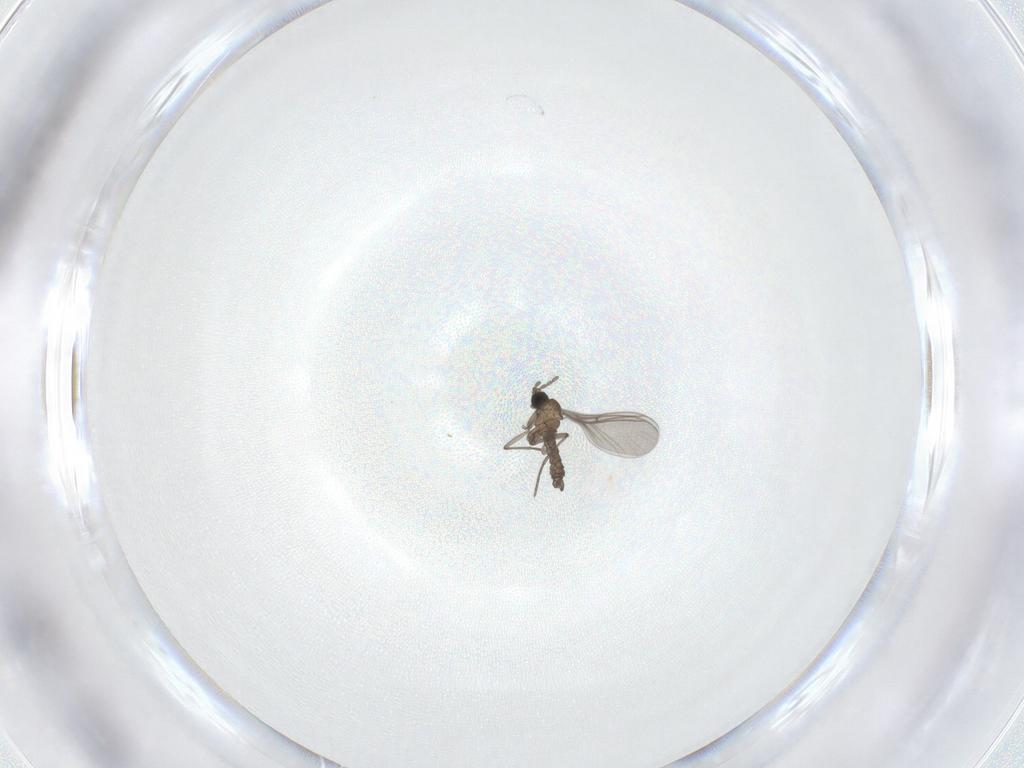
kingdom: Animalia
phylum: Arthropoda
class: Insecta
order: Diptera
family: Sciaridae
